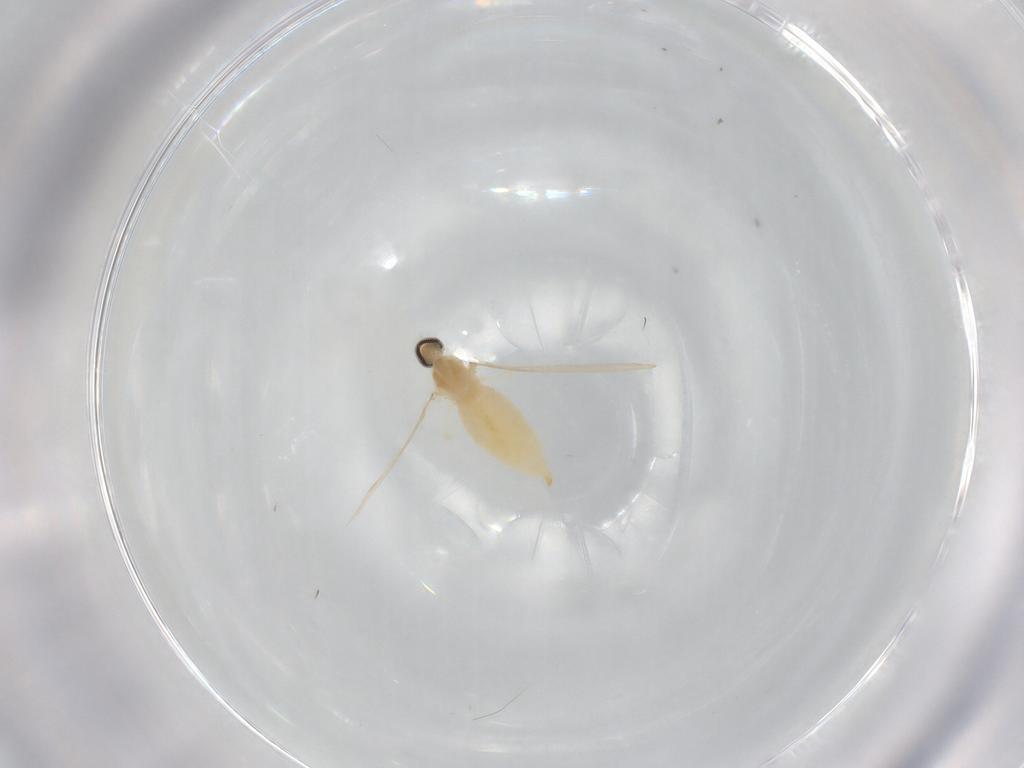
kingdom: Animalia
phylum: Arthropoda
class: Insecta
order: Diptera
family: Cecidomyiidae
